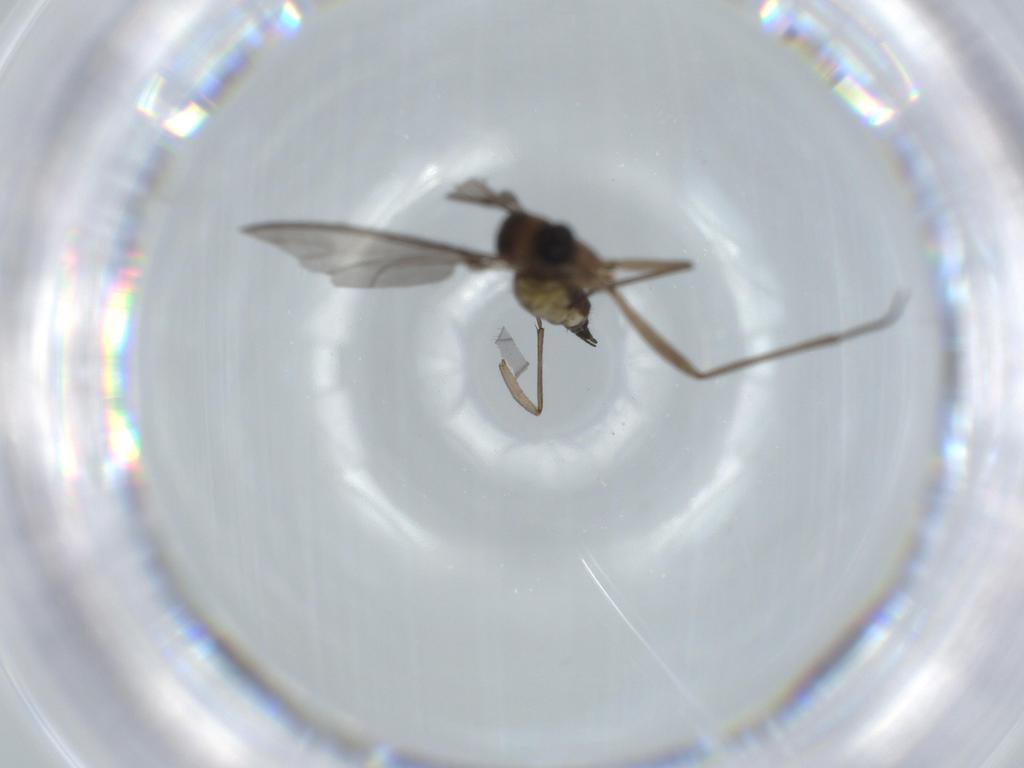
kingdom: Animalia
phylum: Arthropoda
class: Insecta
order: Diptera
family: Sciaridae
